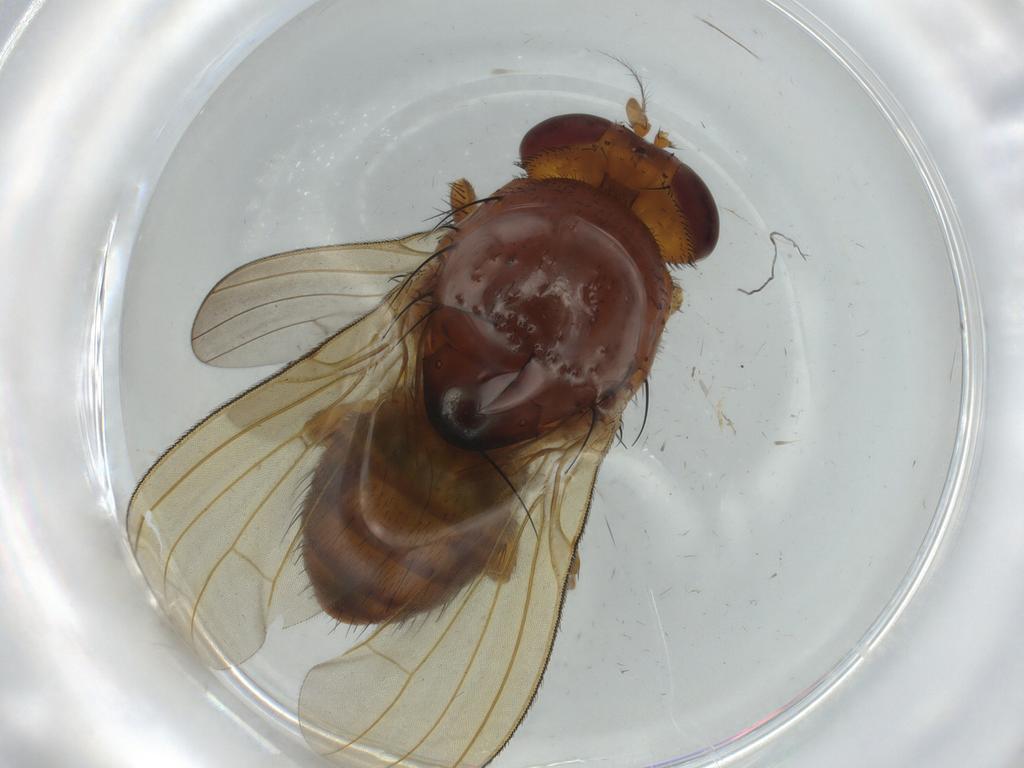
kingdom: Animalia
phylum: Arthropoda
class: Insecta
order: Diptera
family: Cecidomyiidae
